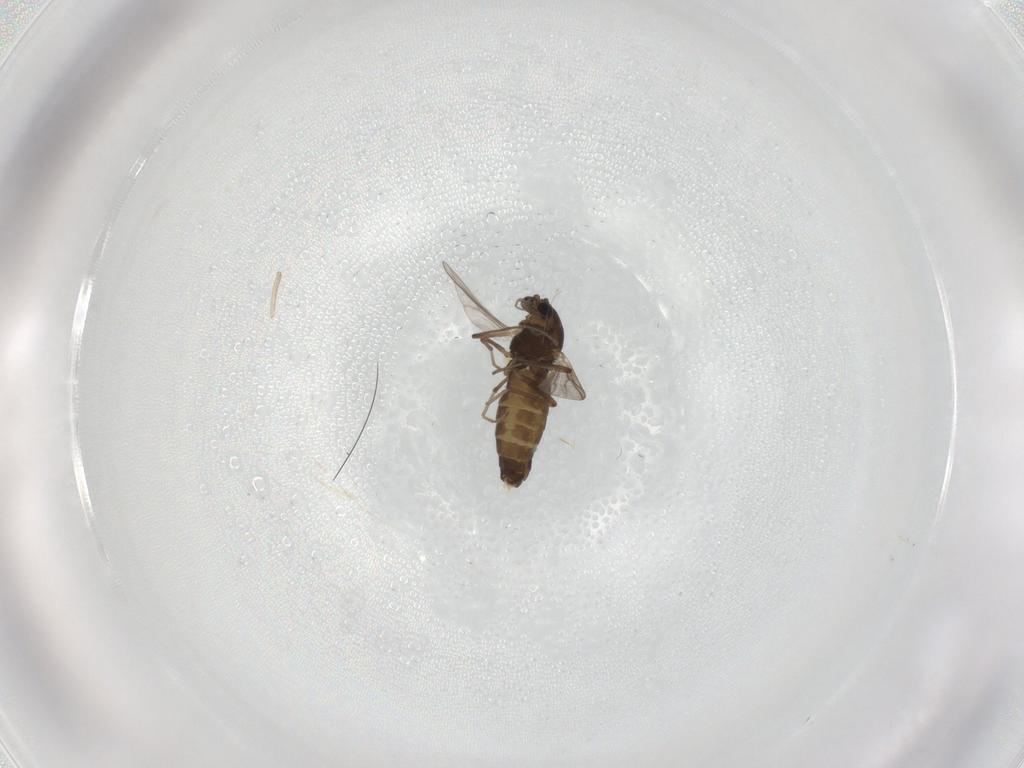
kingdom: Animalia
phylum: Arthropoda
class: Insecta
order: Diptera
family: Chironomidae
